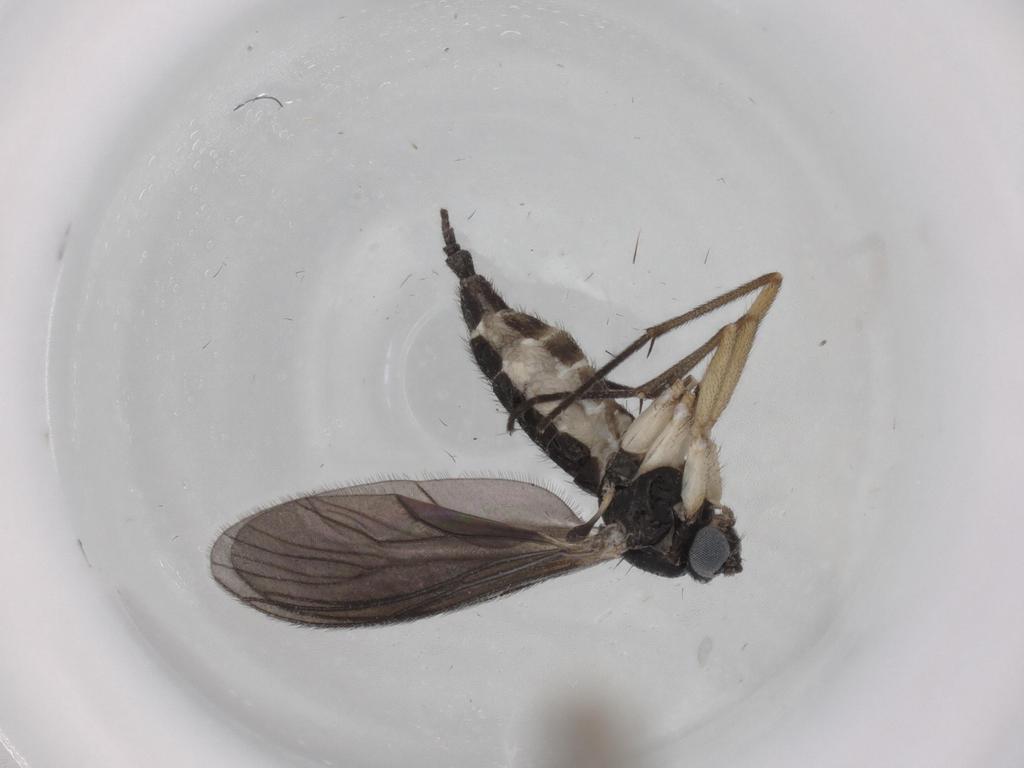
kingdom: Animalia
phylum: Arthropoda
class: Insecta
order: Diptera
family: Sciaridae
